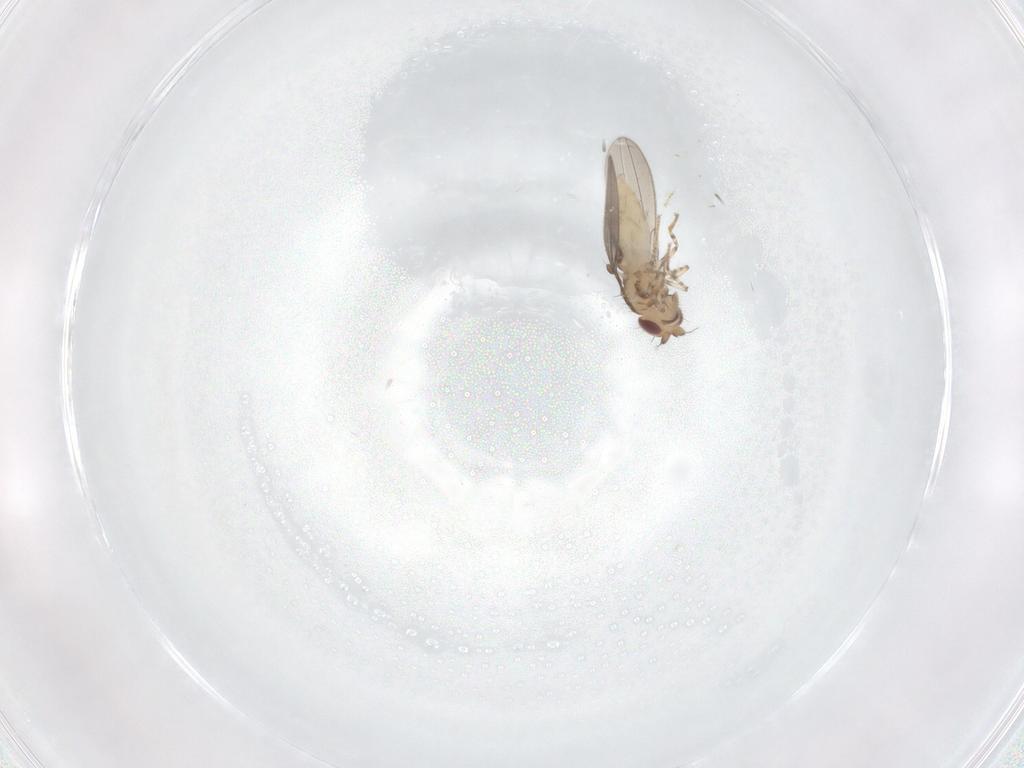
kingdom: Animalia
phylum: Arthropoda
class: Insecta
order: Diptera
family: Asteiidae
